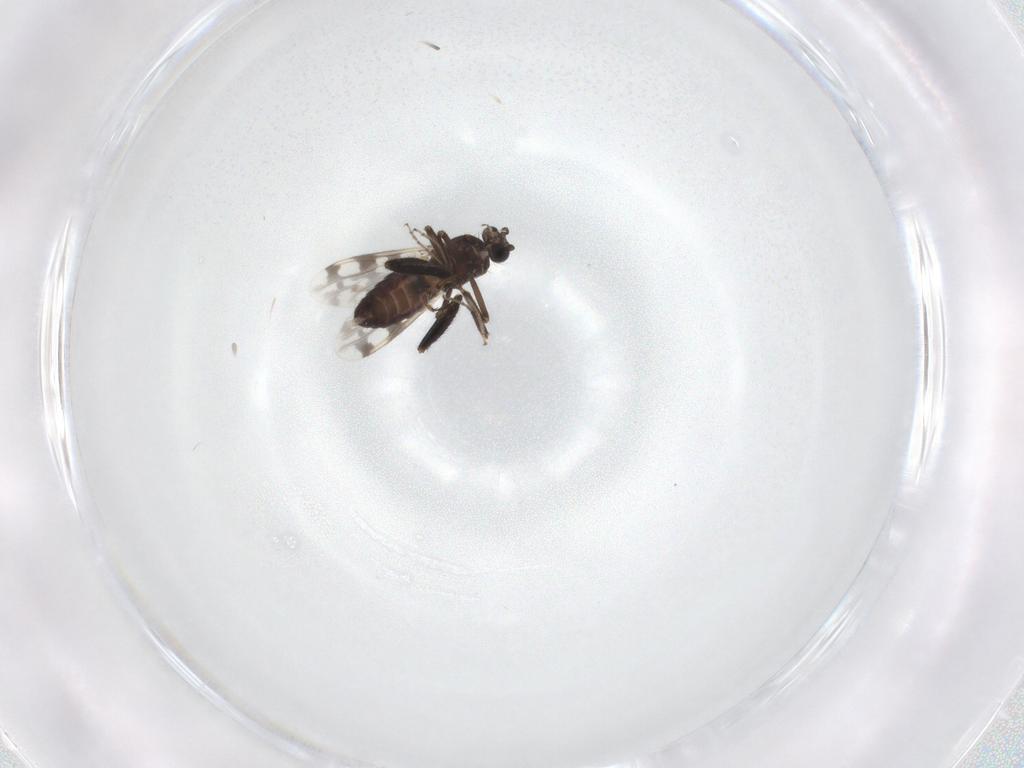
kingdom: Animalia
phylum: Arthropoda
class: Insecta
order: Diptera
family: Ceratopogonidae
